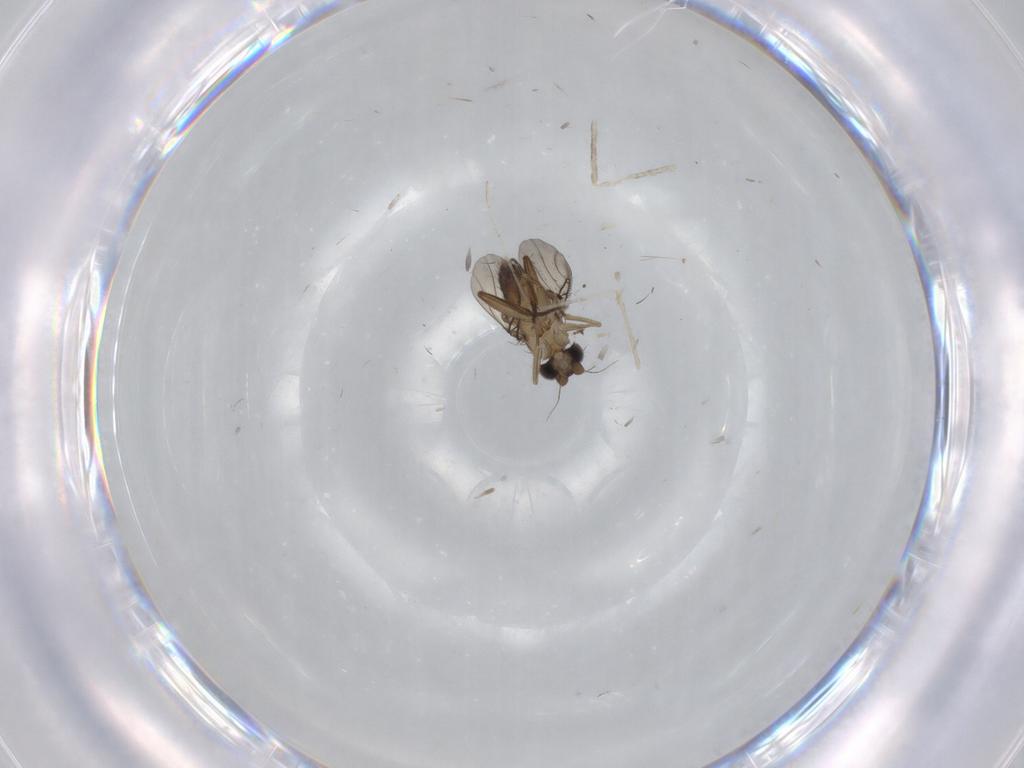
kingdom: Animalia
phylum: Arthropoda
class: Insecta
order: Diptera
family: Phoridae
